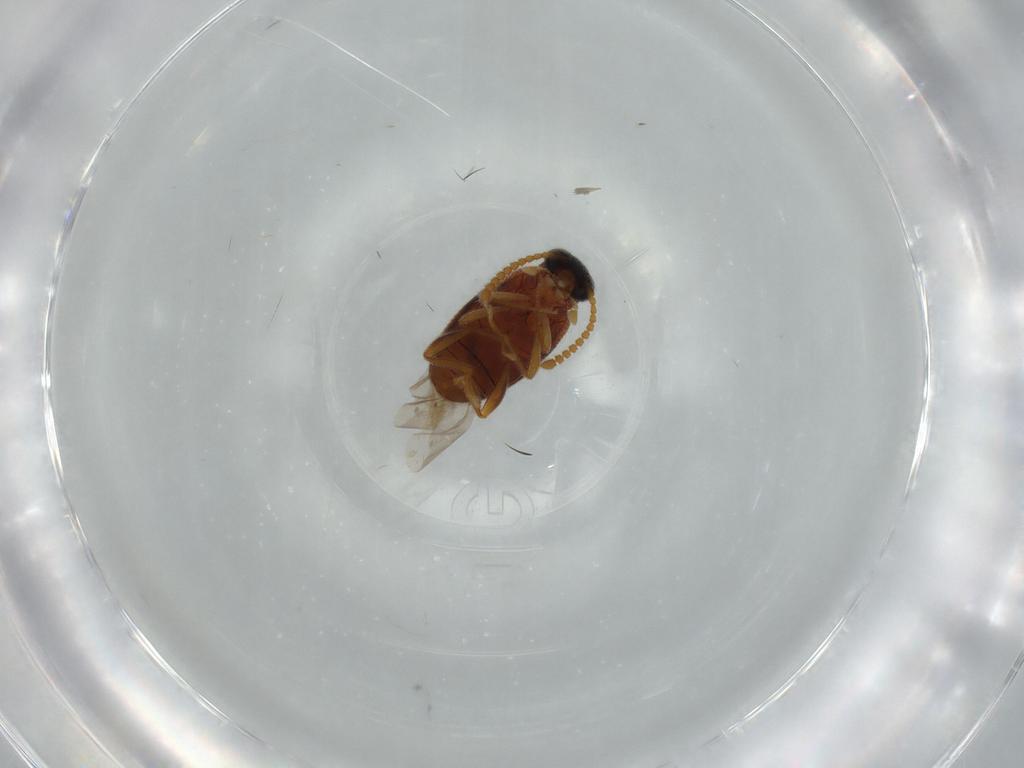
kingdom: Animalia
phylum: Arthropoda
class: Insecta
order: Coleoptera
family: Aderidae
